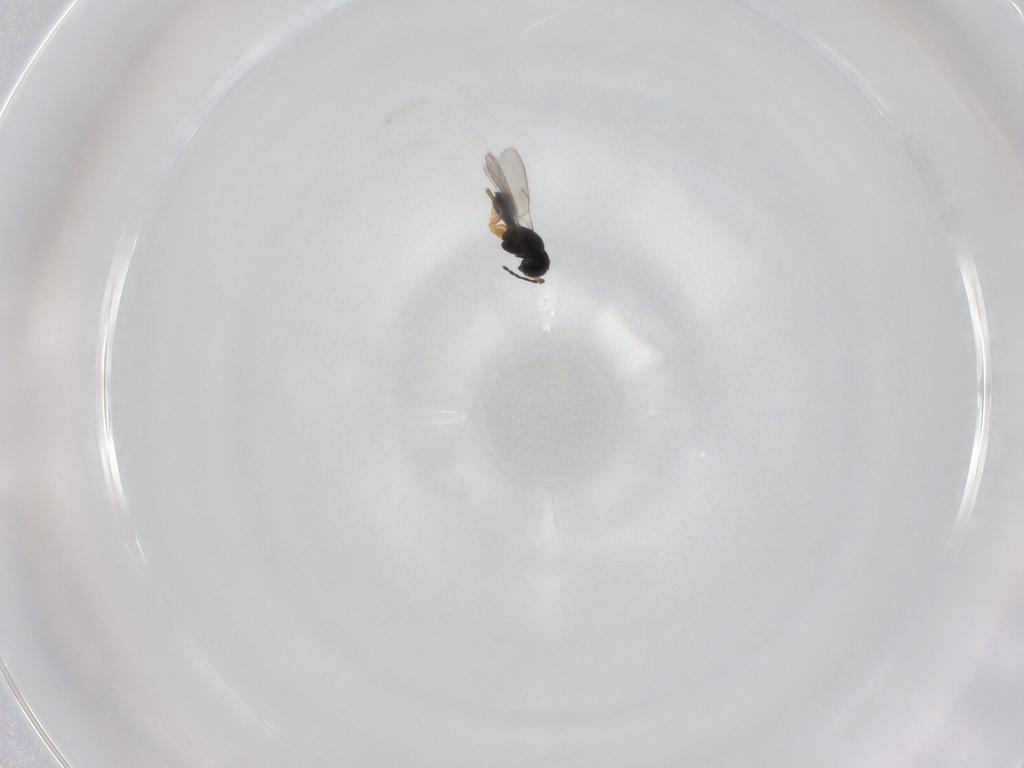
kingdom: Animalia
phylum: Arthropoda
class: Insecta
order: Hymenoptera
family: Scelionidae
